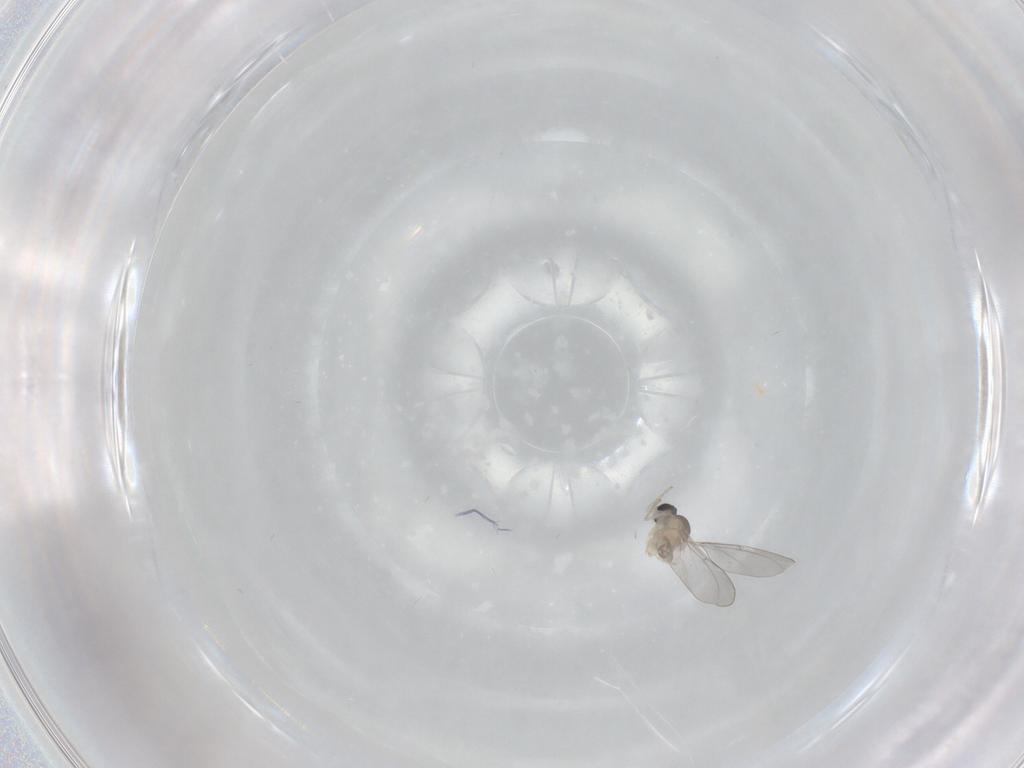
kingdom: Animalia
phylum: Arthropoda
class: Insecta
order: Diptera
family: Cecidomyiidae
